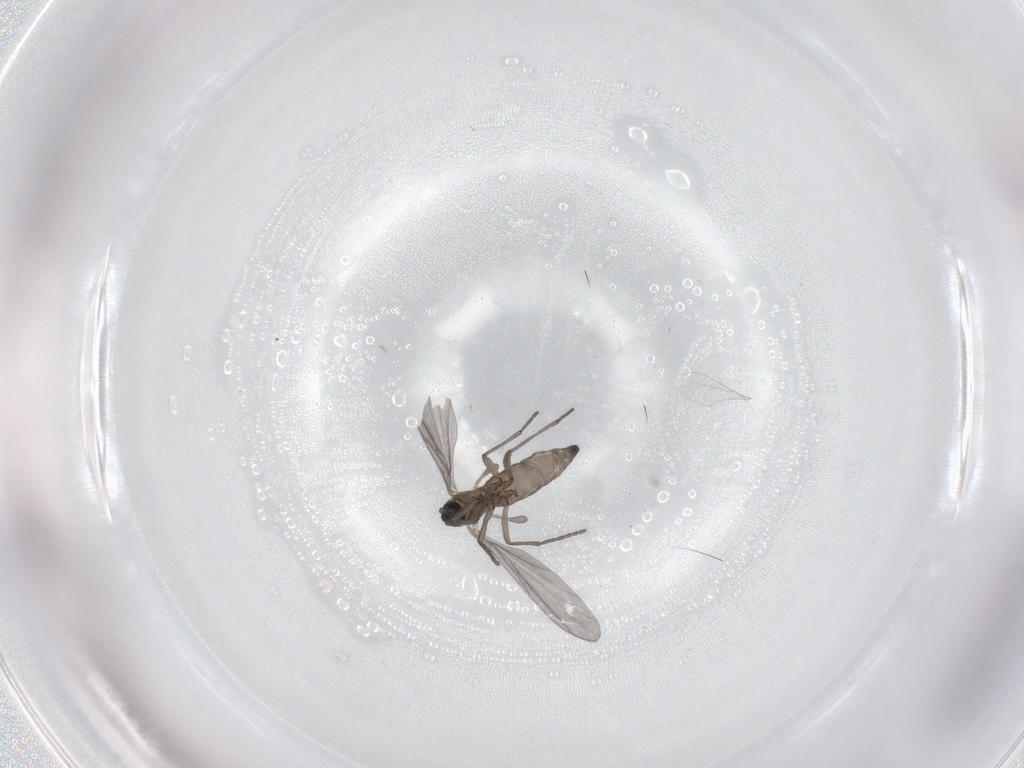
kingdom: Animalia
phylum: Arthropoda
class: Insecta
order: Diptera
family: Sciaridae
